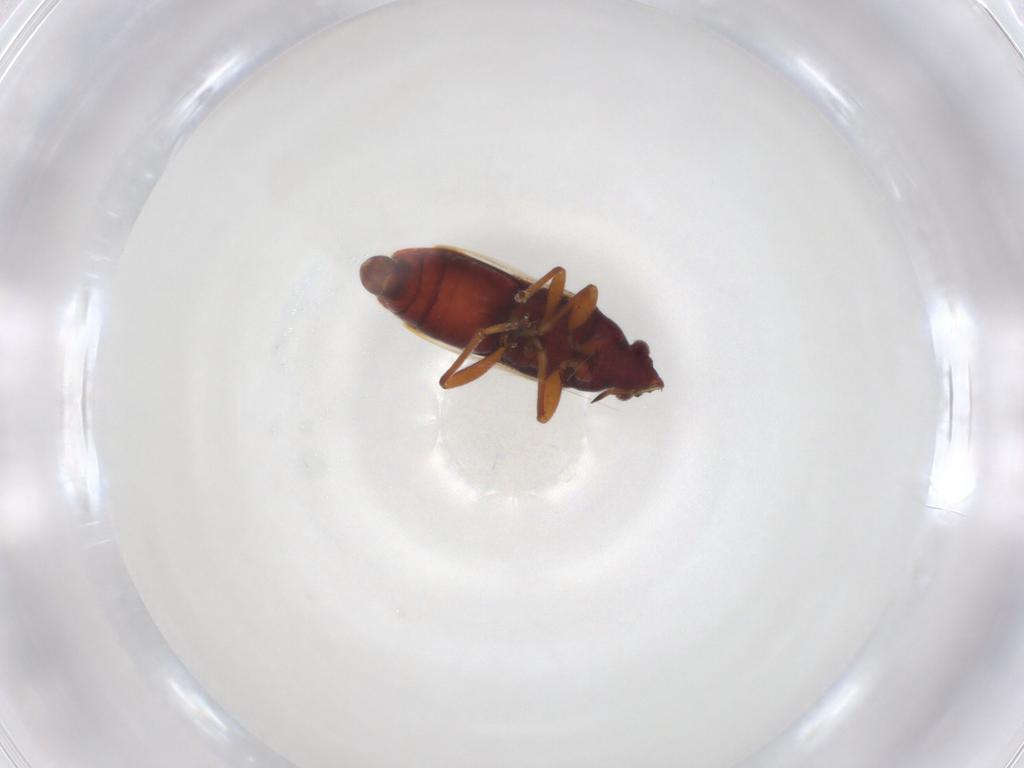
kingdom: Animalia
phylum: Arthropoda
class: Insecta
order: Hemiptera
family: Rhyparochromidae
